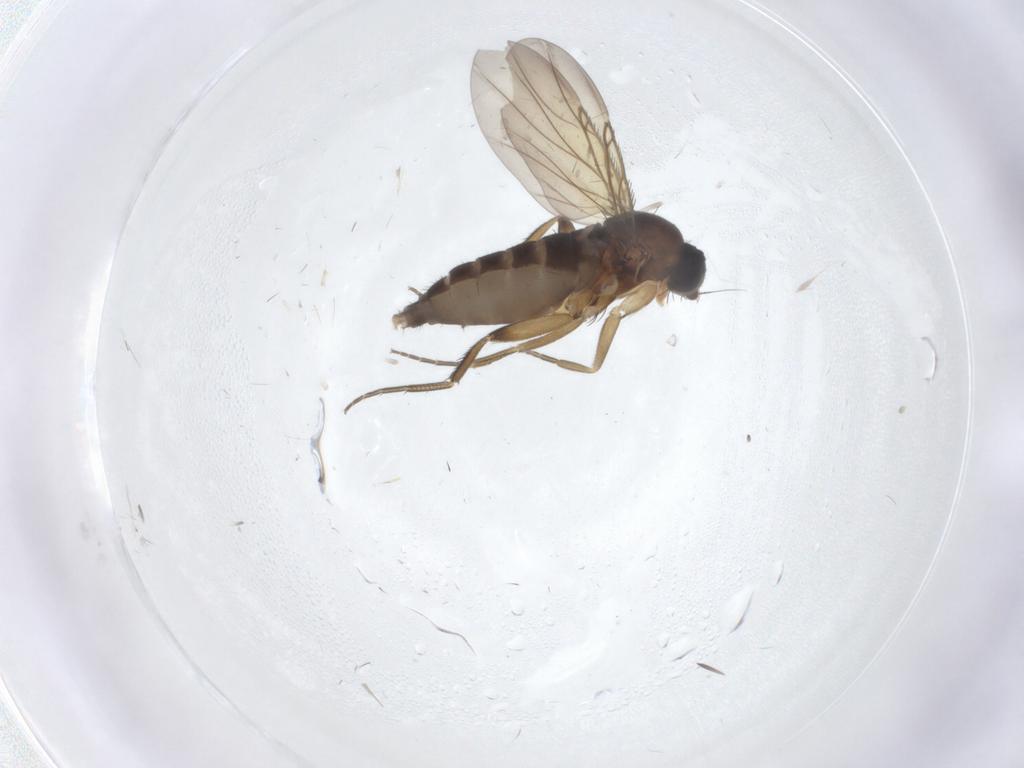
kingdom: Animalia
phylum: Arthropoda
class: Insecta
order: Diptera
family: Phoridae
